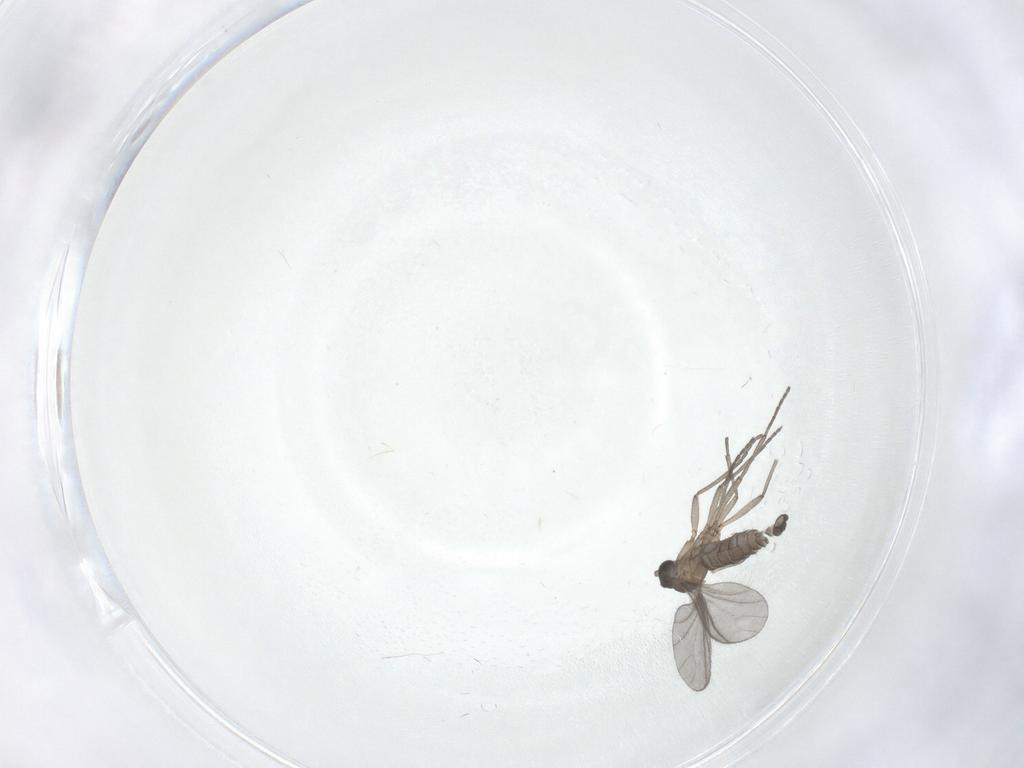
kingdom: Animalia
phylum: Arthropoda
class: Insecta
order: Diptera
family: Sciaridae
